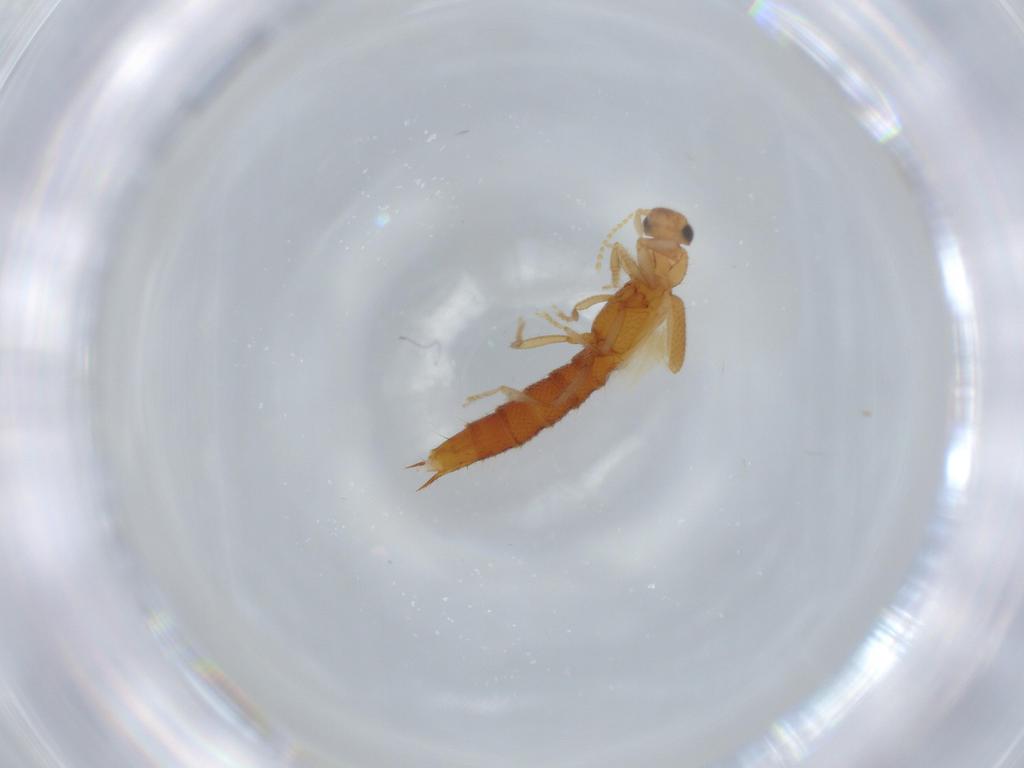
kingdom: Animalia
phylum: Arthropoda
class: Insecta
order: Coleoptera
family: Staphylinidae
